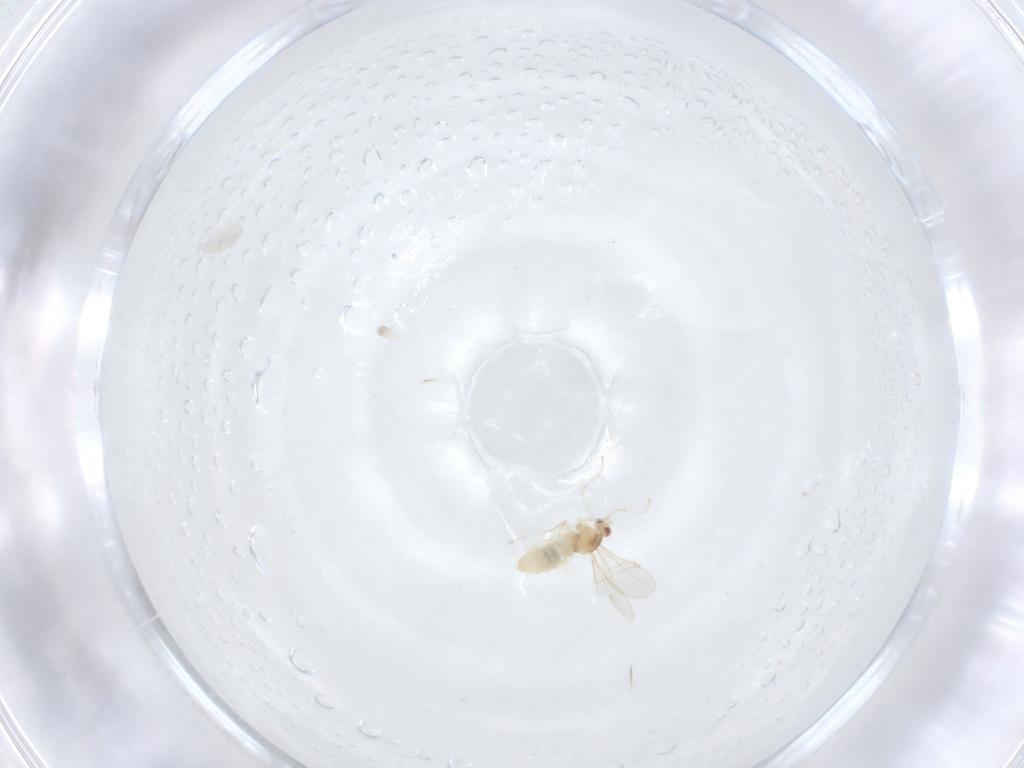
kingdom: Animalia
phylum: Arthropoda
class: Insecta
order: Diptera
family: Cecidomyiidae
